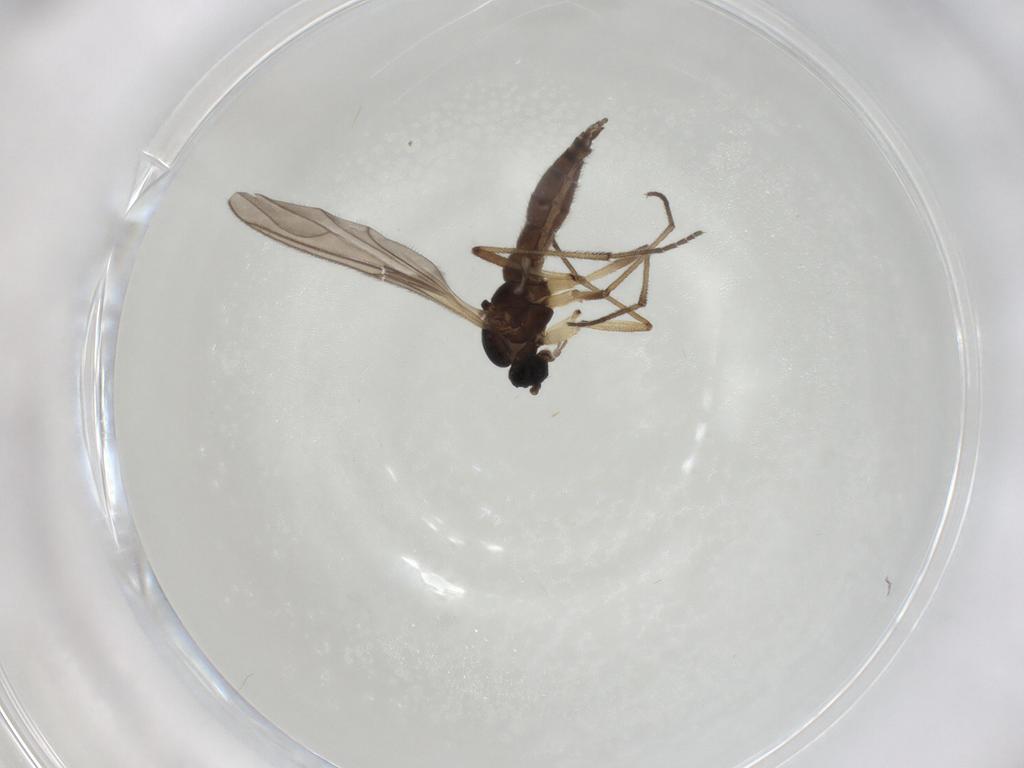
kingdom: Animalia
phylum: Arthropoda
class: Insecta
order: Diptera
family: Sciaridae
